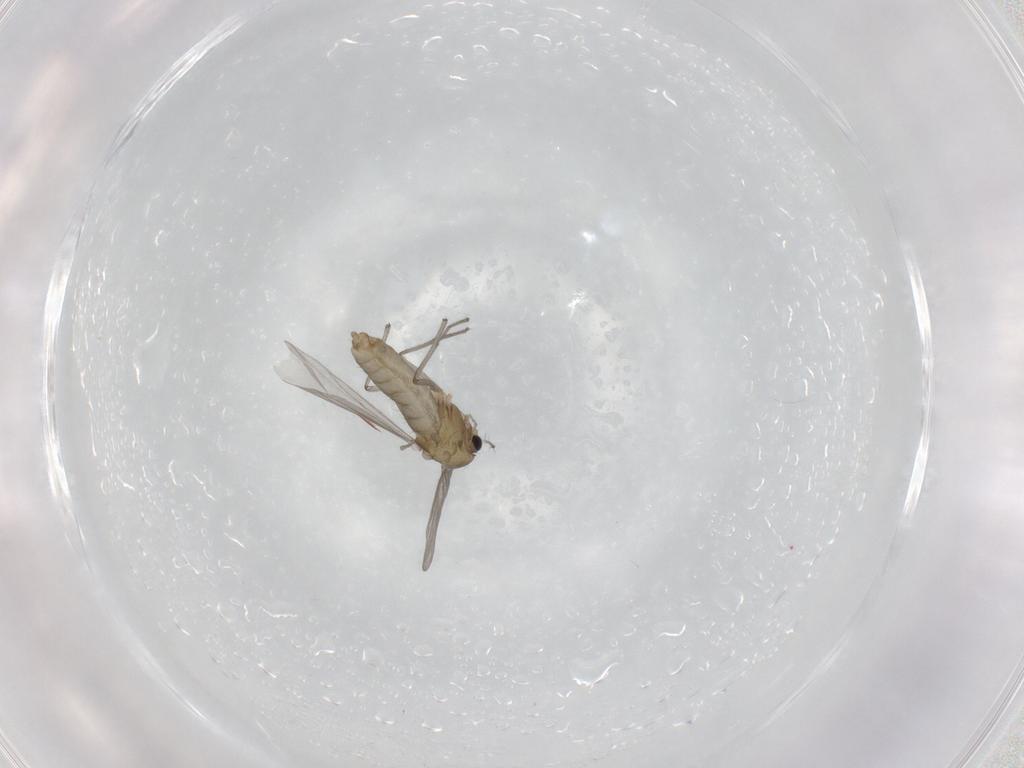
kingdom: Animalia
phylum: Arthropoda
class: Insecta
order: Diptera
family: Chironomidae
